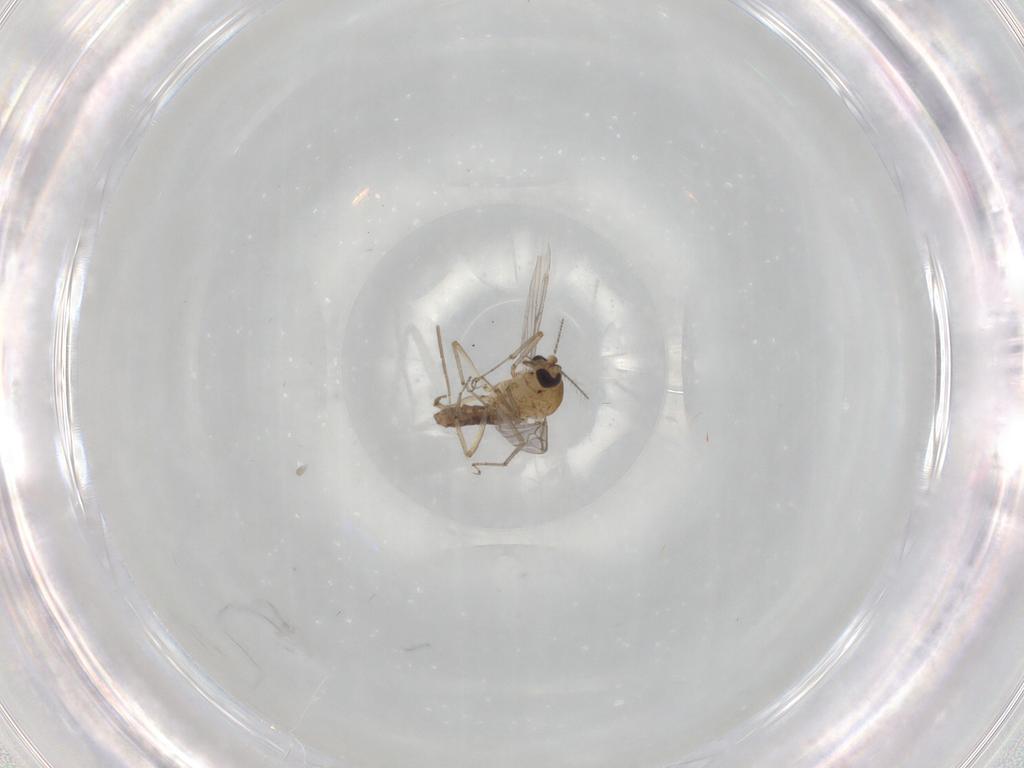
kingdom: Animalia
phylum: Arthropoda
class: Insecta
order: Diptera
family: Ceratopogonidae
